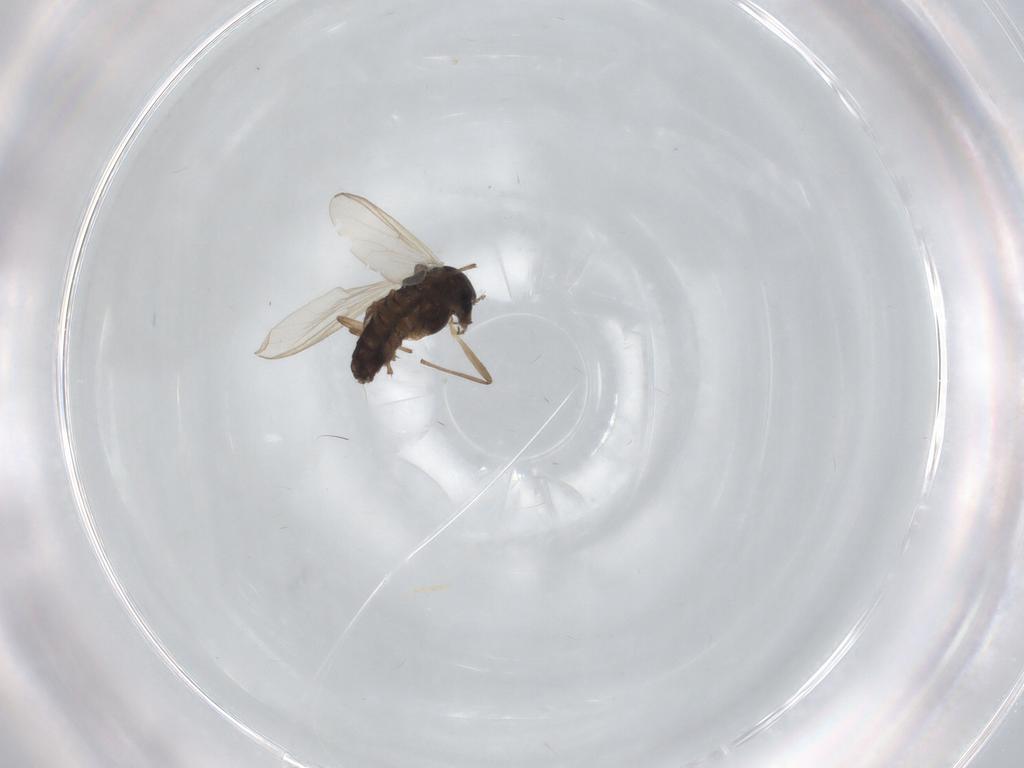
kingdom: Animalia
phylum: Arthropoda
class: Insecta
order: Diptera
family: Chironomidae
